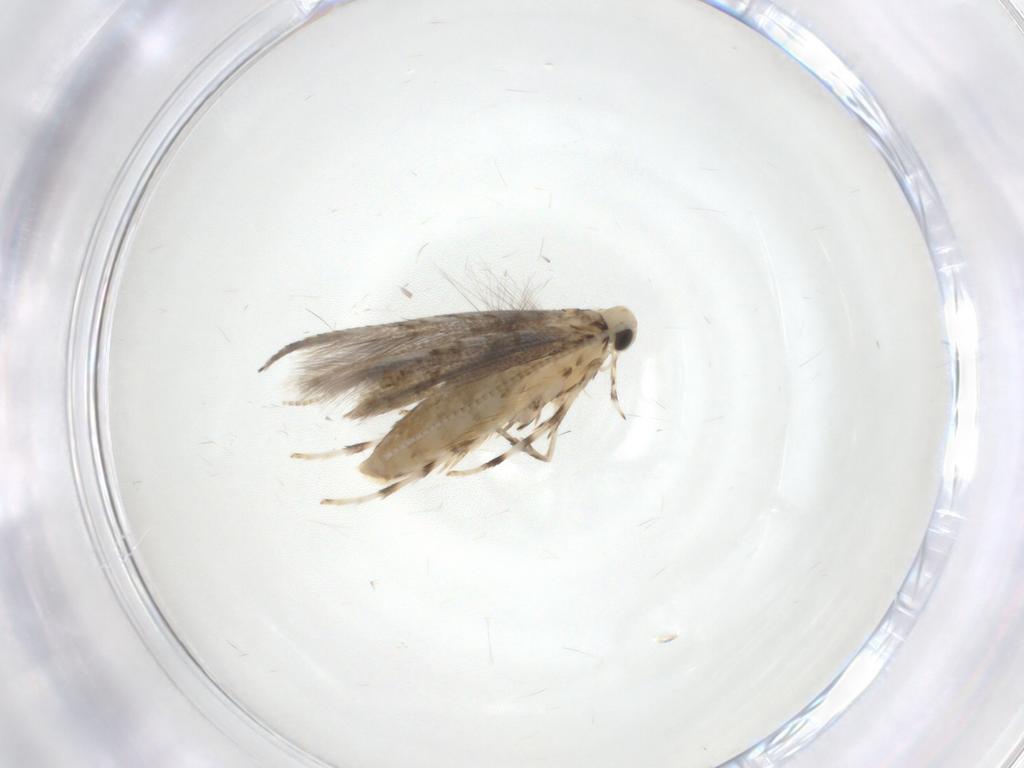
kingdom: Animalia
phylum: Arthropoda
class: Insecta
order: Lepidoptera
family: Gracillariidae
